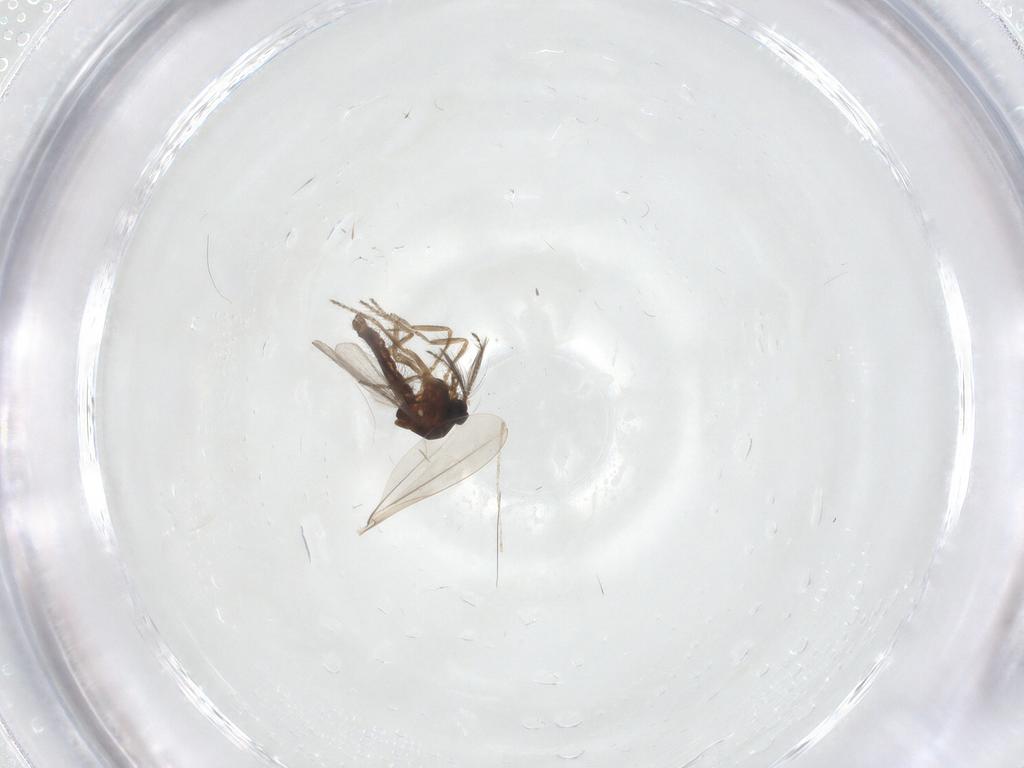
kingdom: Animalia
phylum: Arthropoda
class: Insecta
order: Diptera
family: Ceratopogonidae
